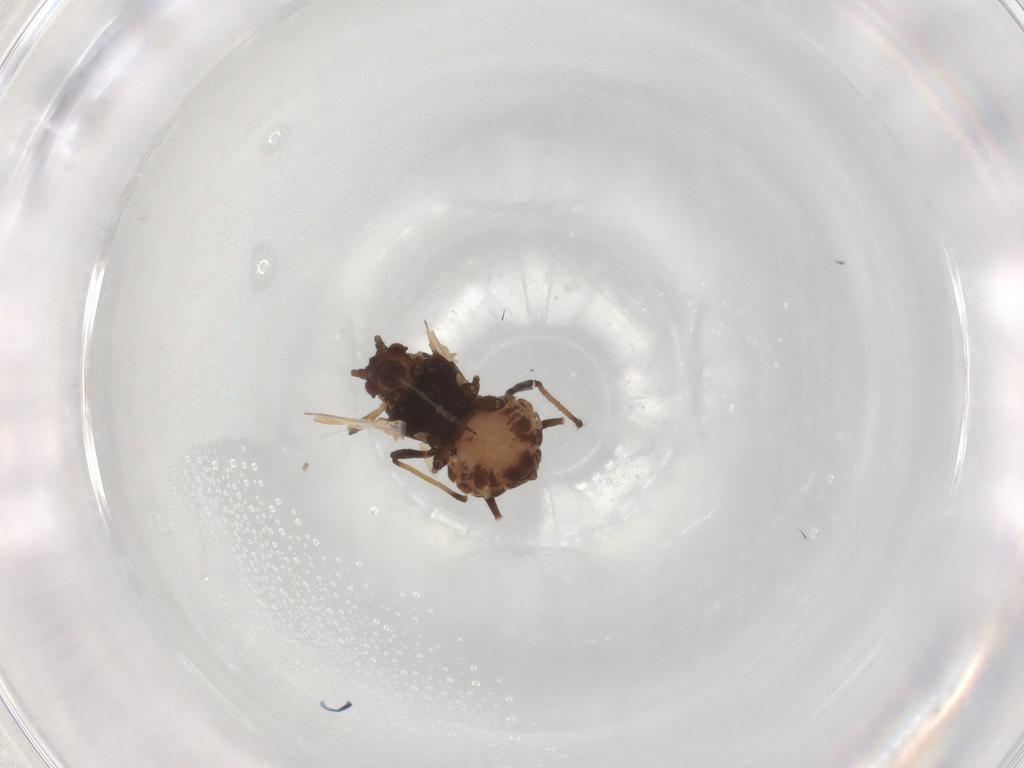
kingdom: Animalia
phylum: Arthropoda
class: Insecta
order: Hemiptera
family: Aphididae
